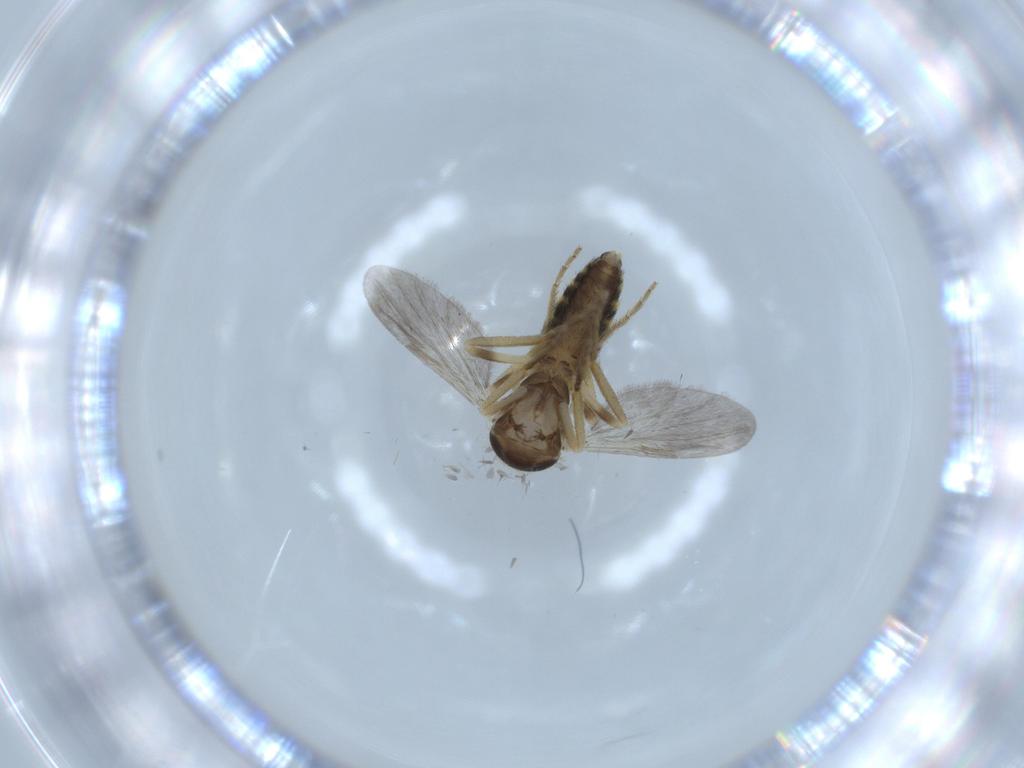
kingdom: Animalia
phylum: Arthropoda
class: Insecta
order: Diptera
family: Ceratopogonidae
